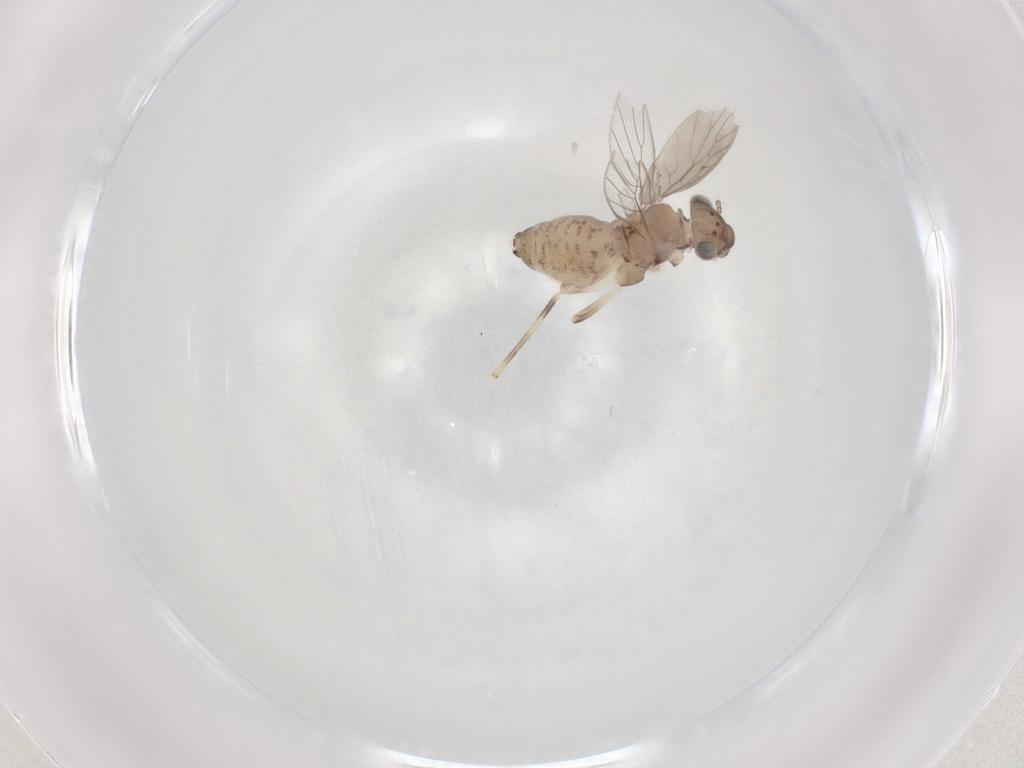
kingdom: Animalia
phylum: Arthropoda
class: Insecta
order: Psocodea
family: Lepidopsocidae
